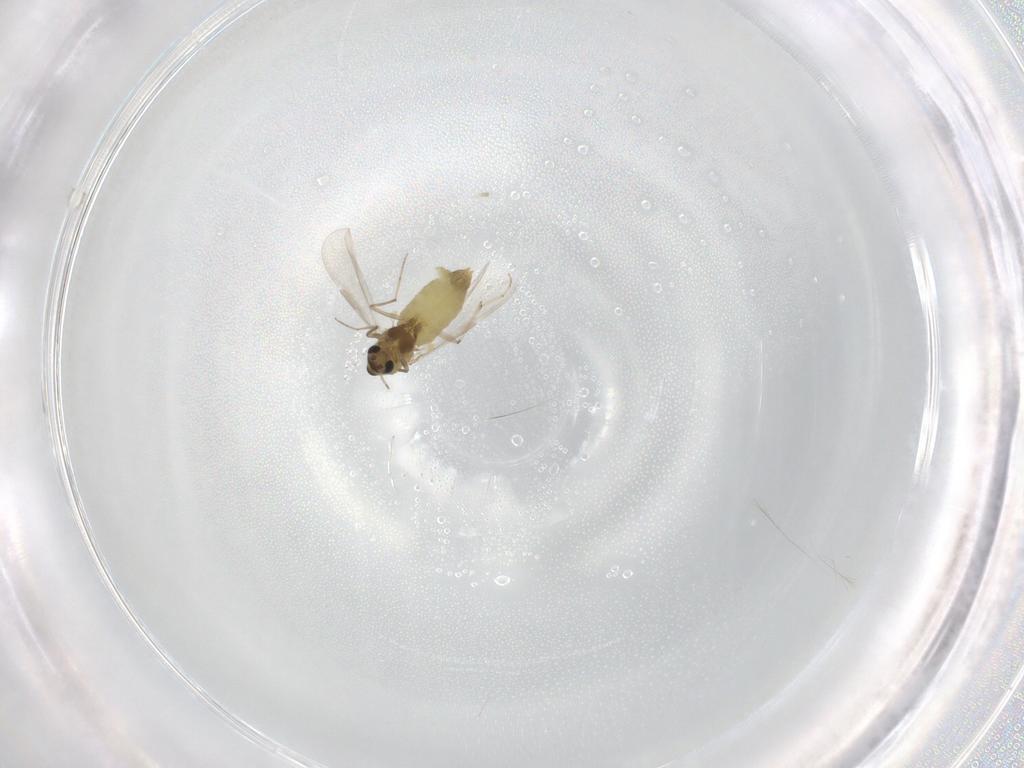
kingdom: Animalia
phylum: Arthropoda
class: Insecta
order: Diptera
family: Chironomidae
